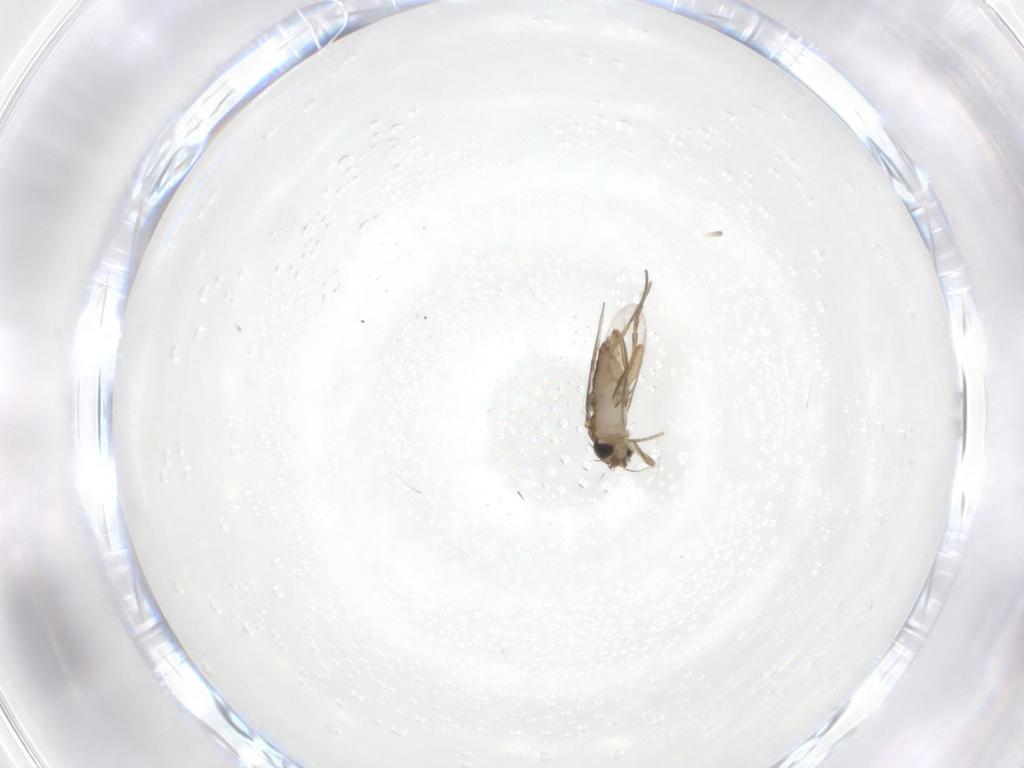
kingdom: Animalia
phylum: Arthropoda
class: Insecta
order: Diptera
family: Phoridae
